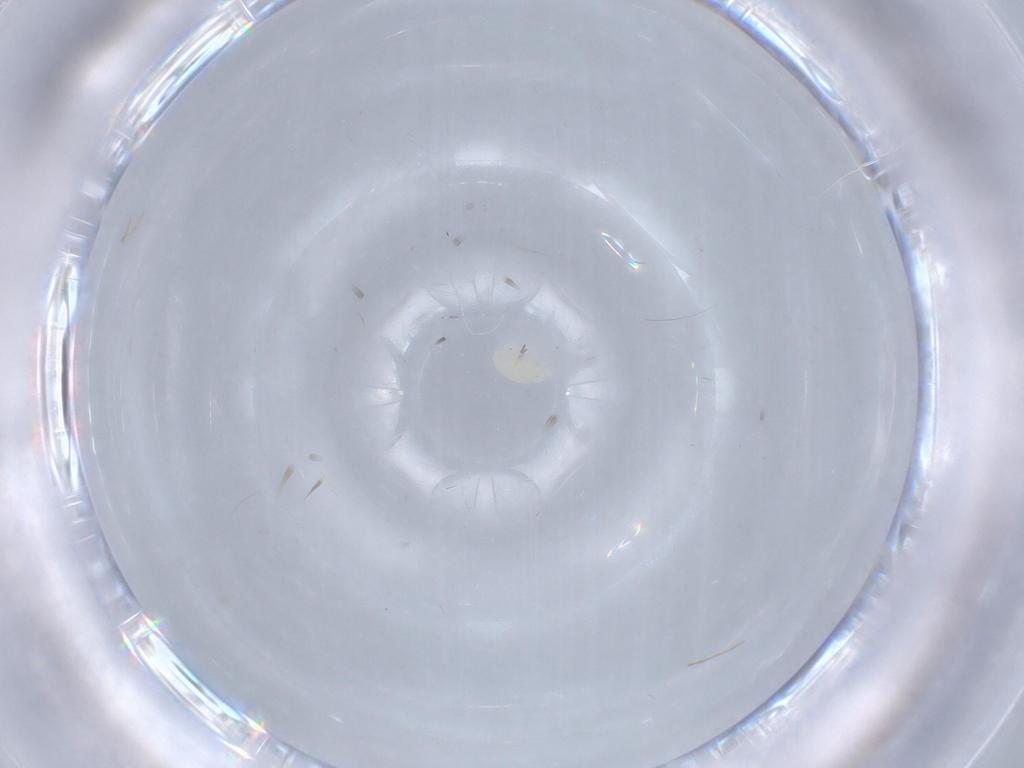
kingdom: Animalia
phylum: Arthropoda
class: Arachnida
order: Trombidiformes
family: Eupodidae
